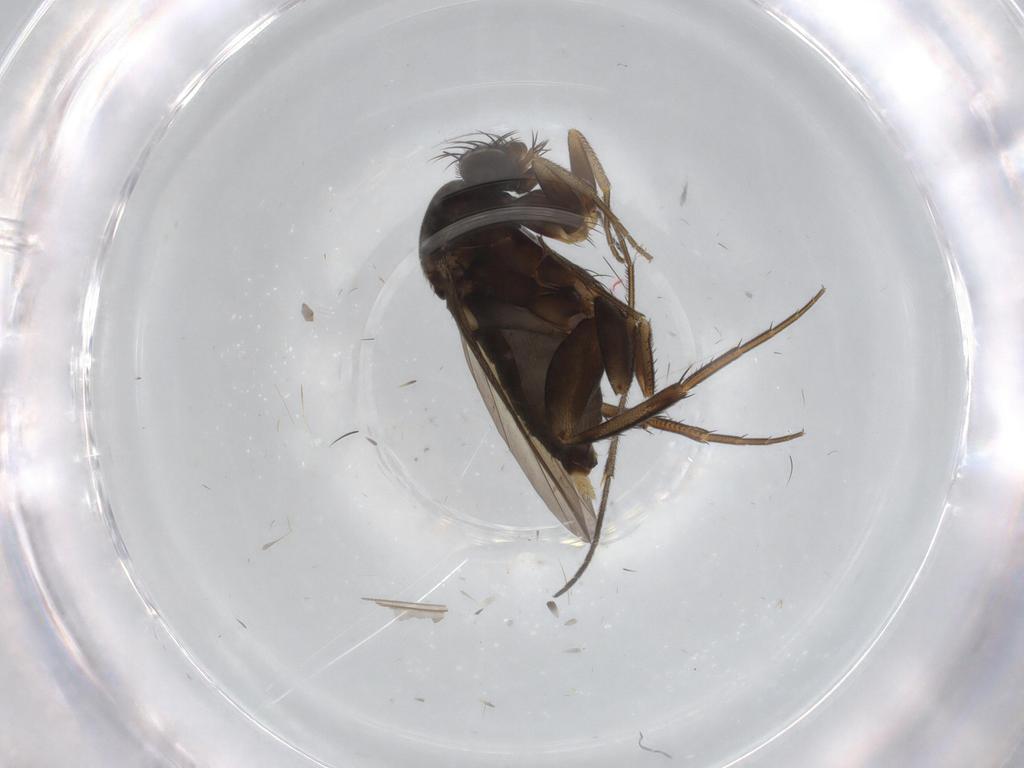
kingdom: Animalia
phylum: Arthropoda
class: Insecta
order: Diptera
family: Phoridae
